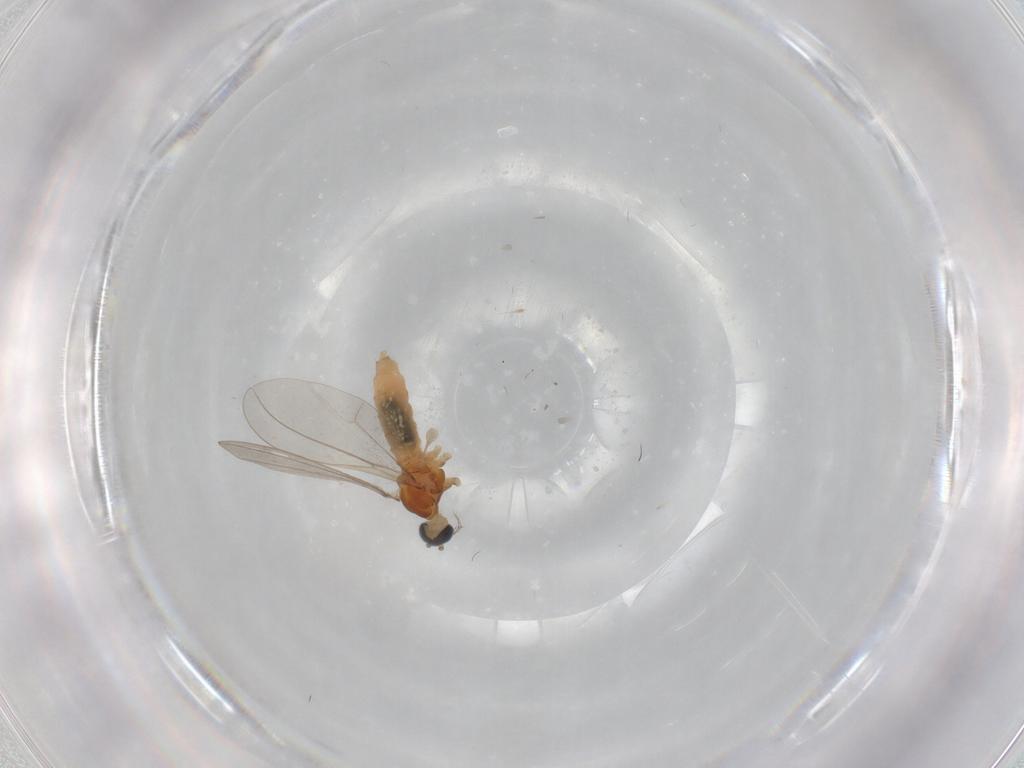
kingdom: Animalia
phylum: Arthropoda
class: Insecta
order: Diptera
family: Cecidomyiidae
